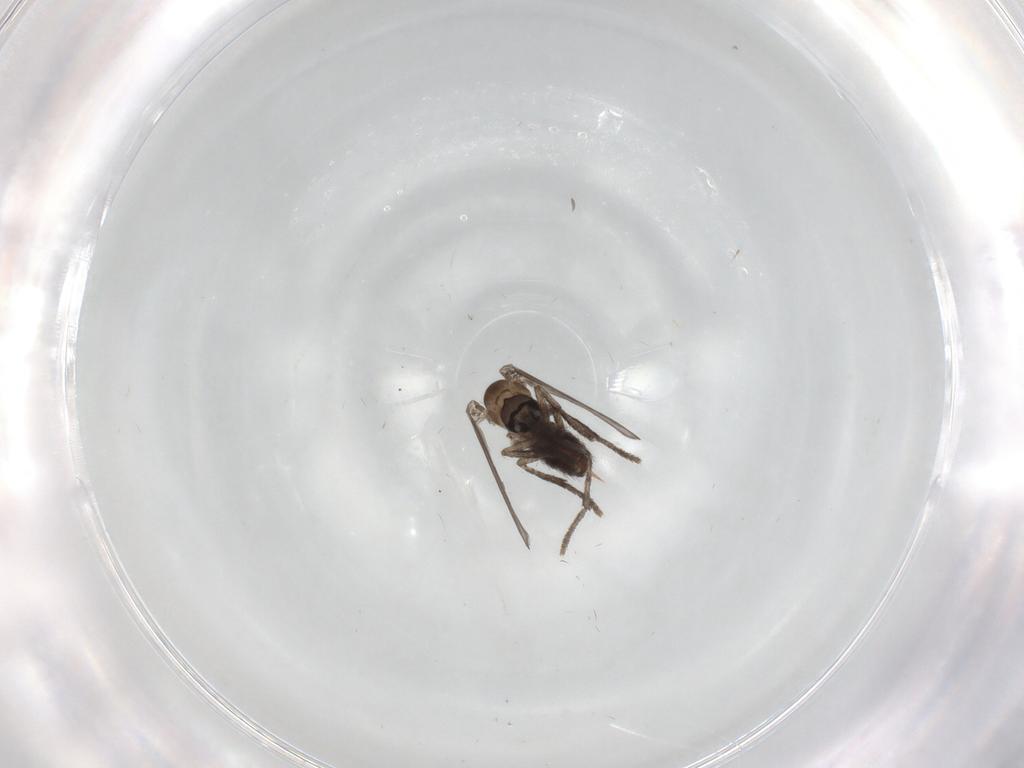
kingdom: Animalia
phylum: Arthropoda
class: Insecta
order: Diptera
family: Psychodidae
